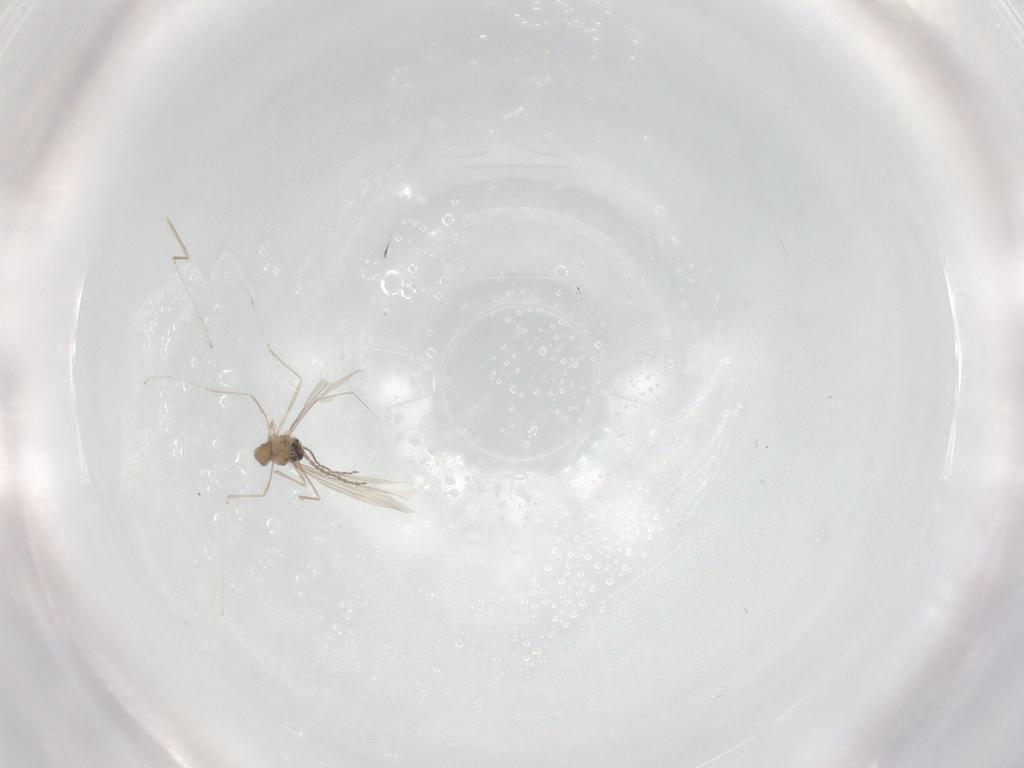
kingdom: Animalia
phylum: Arthropoda
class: Insecta
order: Diptera
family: Cecidomyiidae
